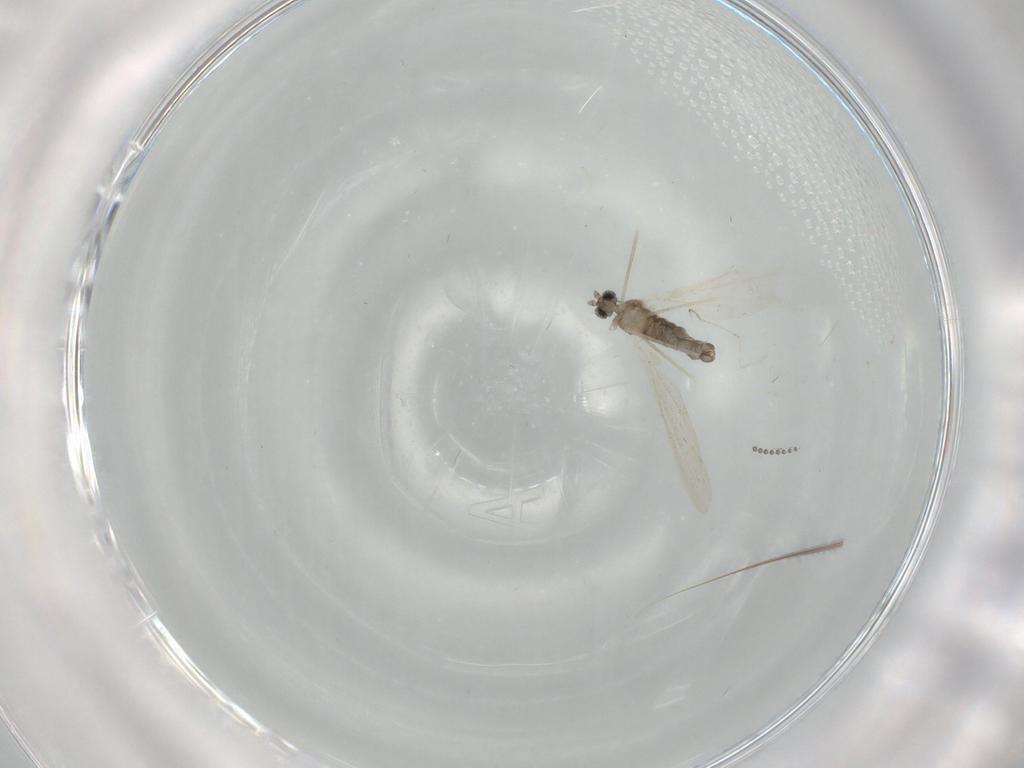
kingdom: Animalia
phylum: Arthropoda
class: Insecta
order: Diptera
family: Cecidomyiidae
